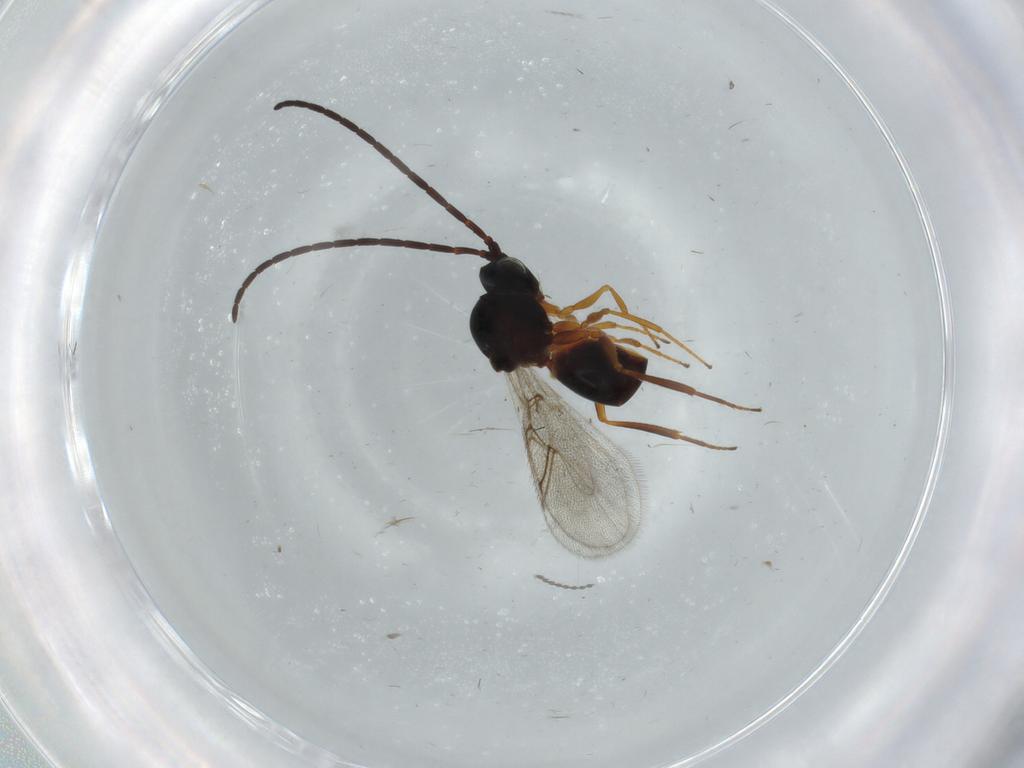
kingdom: Animalia
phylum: Arthropoda
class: Insecta
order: Hymenoptera
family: Figitidae
